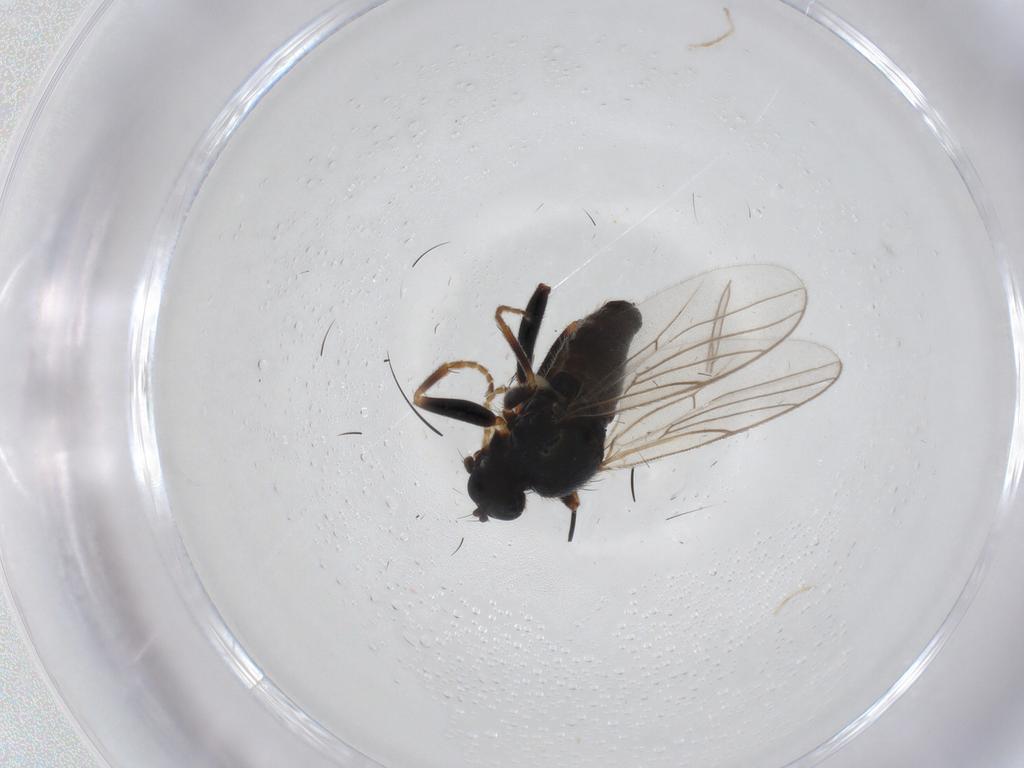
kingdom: Animalia
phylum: Arthropoda
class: Insecta
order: Diptera
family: Hybotidae
